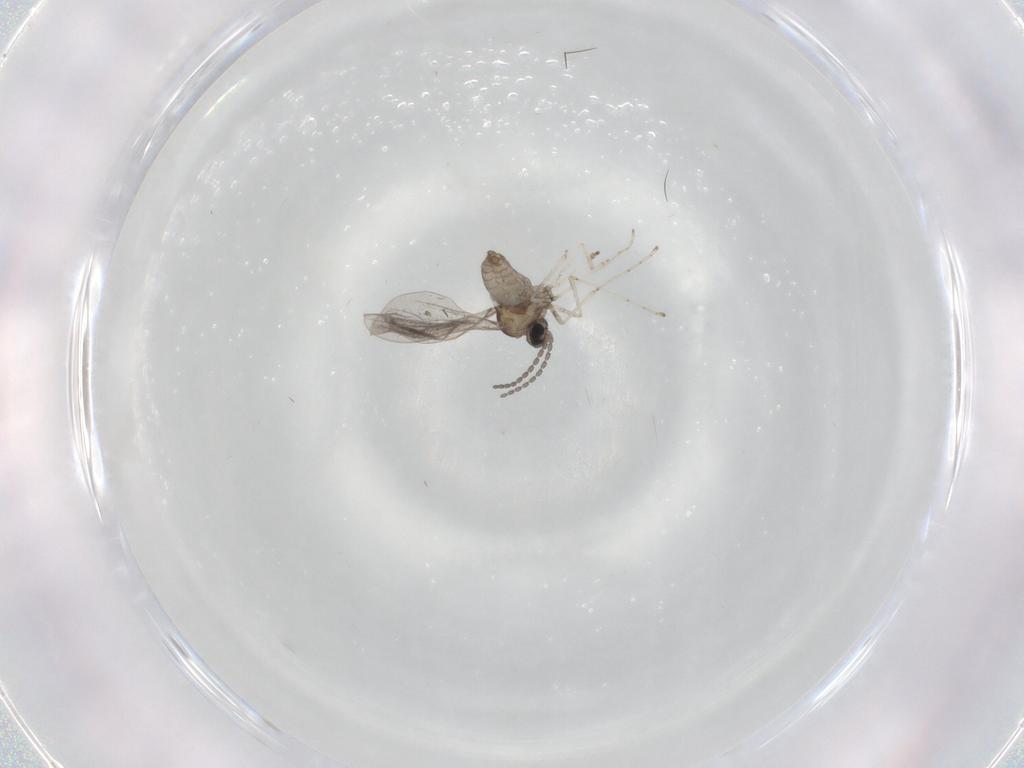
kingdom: Animalia
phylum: Arthropoda
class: Insecta
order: Diptera
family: Cecidomyiidae
